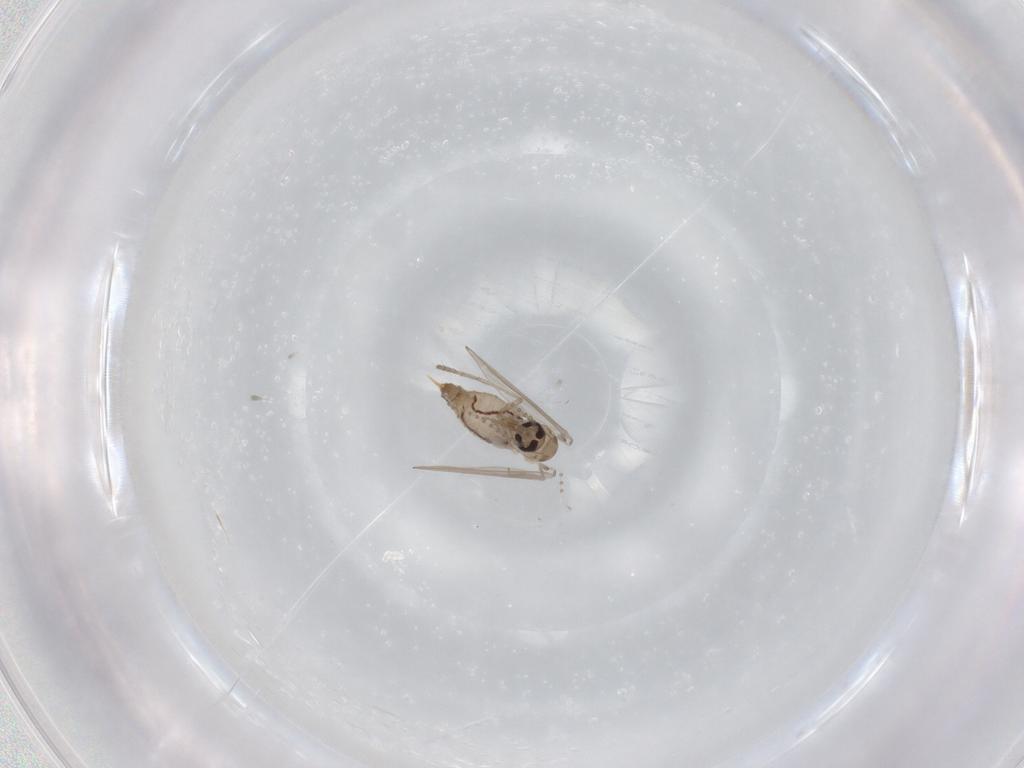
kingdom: Animalia
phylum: Arthropoda
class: Insecta
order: Diptera
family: Psychodidae
